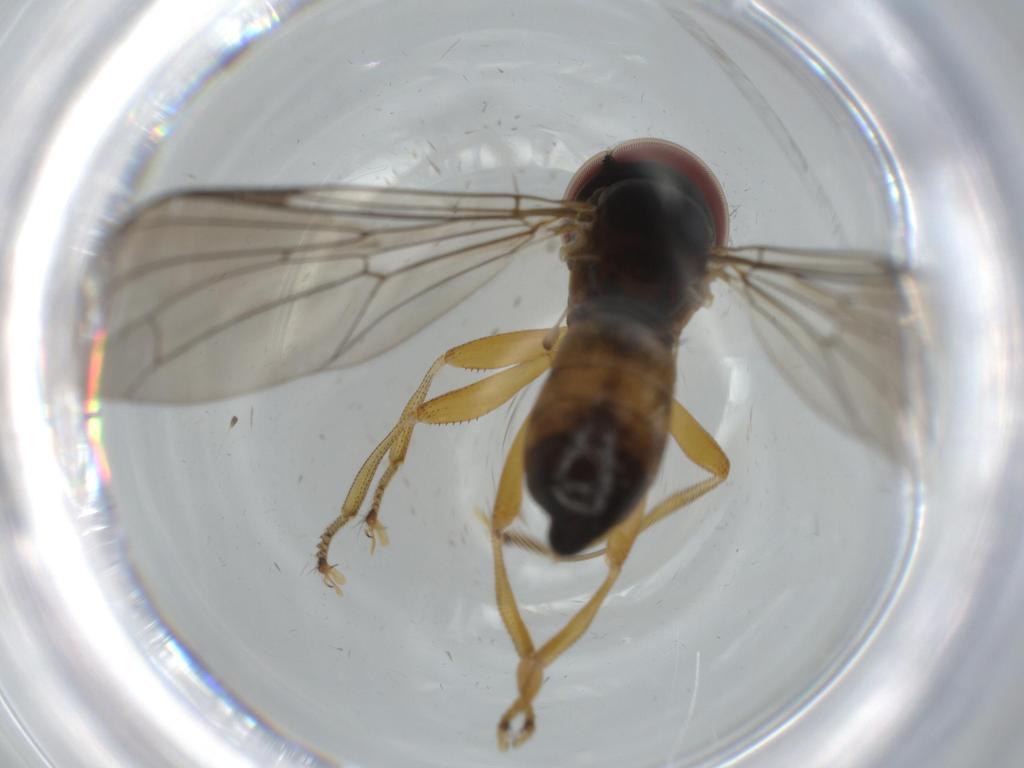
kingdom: Animalia
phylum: Arthropoda
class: Insecta
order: Diptera
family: Pipunculidae
